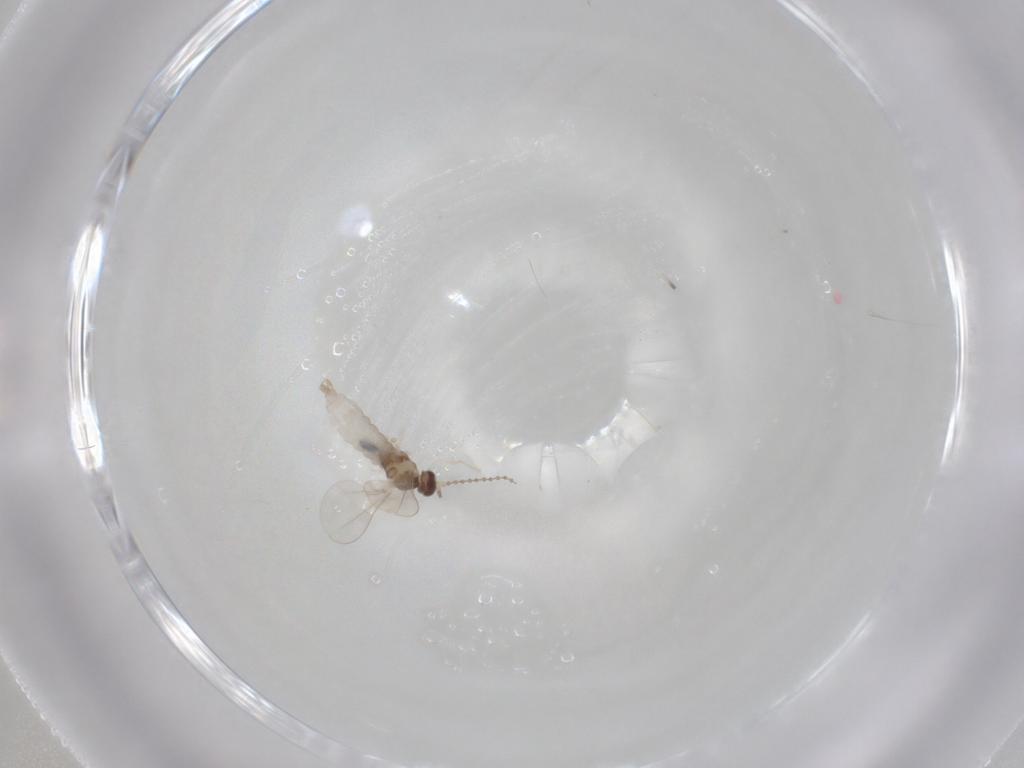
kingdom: Animalia
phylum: Arthropoda
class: Insecta
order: Diptera
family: Cecidomyiidae
